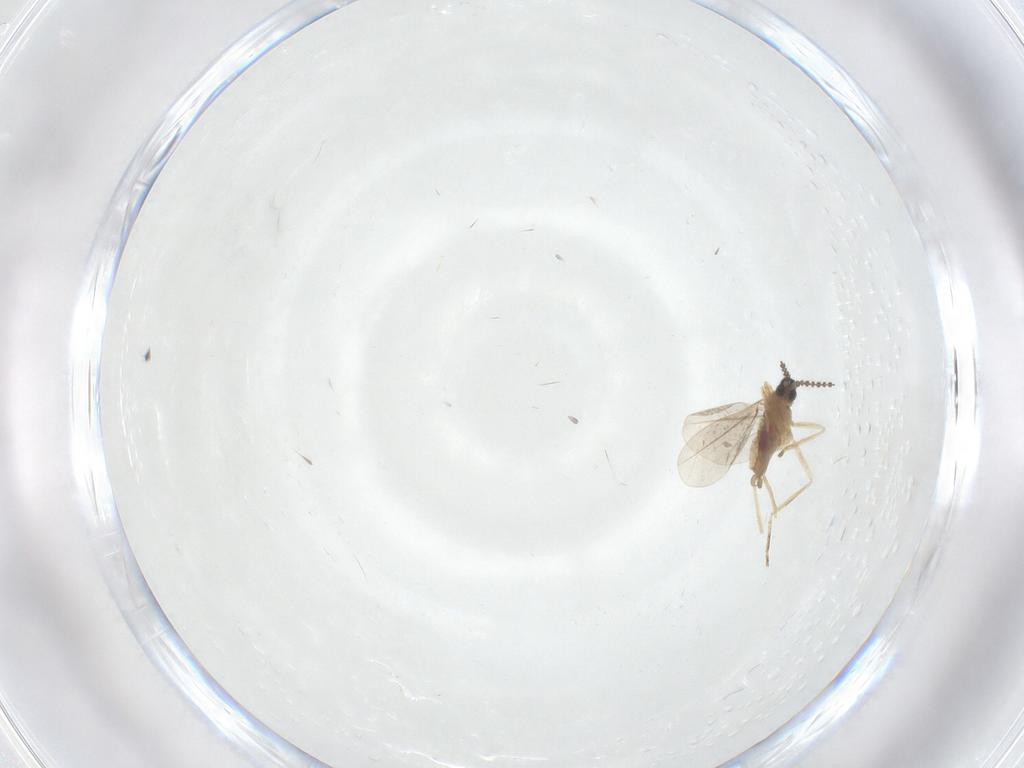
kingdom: Animalia
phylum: Arthropoda
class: Insecta
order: Diptera
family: Cecidomyiidae
